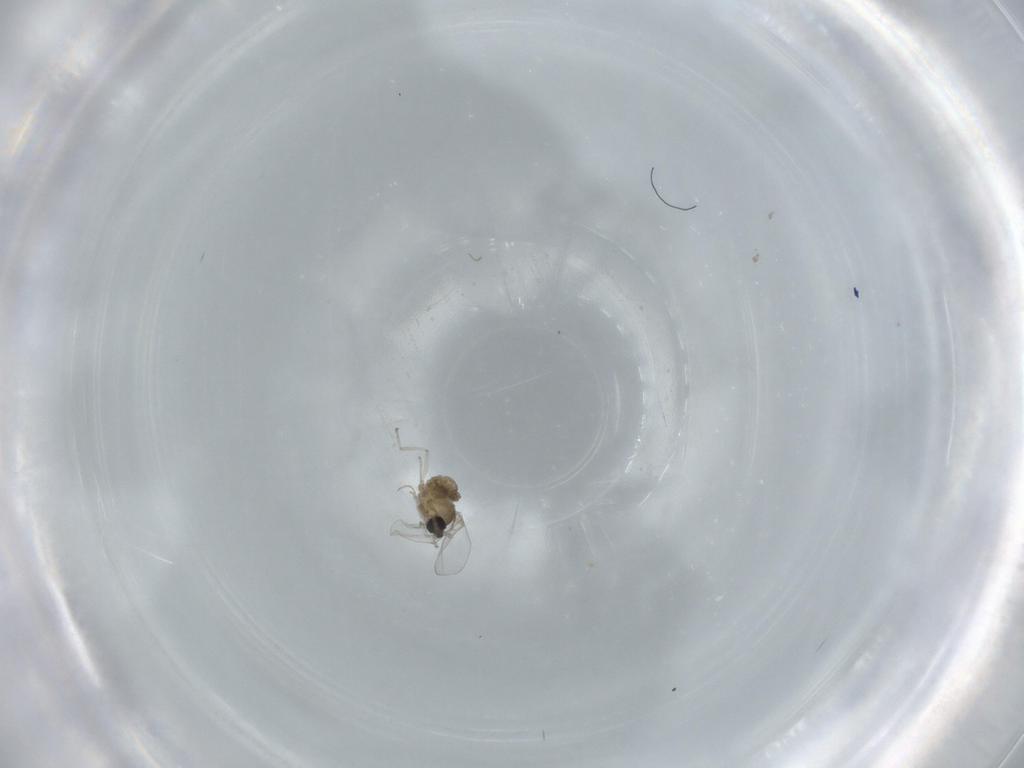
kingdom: Animalia
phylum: Arthropoda
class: Insecta
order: Diptera
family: Cecidomyiidae
